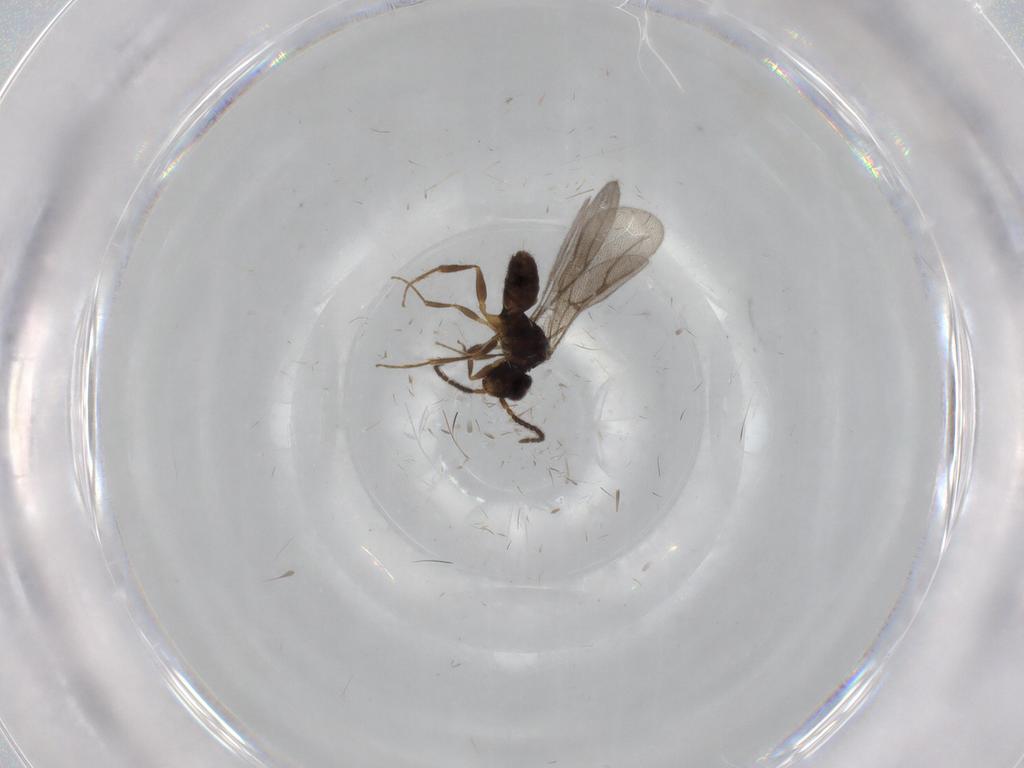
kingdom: Animalia
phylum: Arthropoda
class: Insecta
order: Hymenoptera
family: Bethylidae
